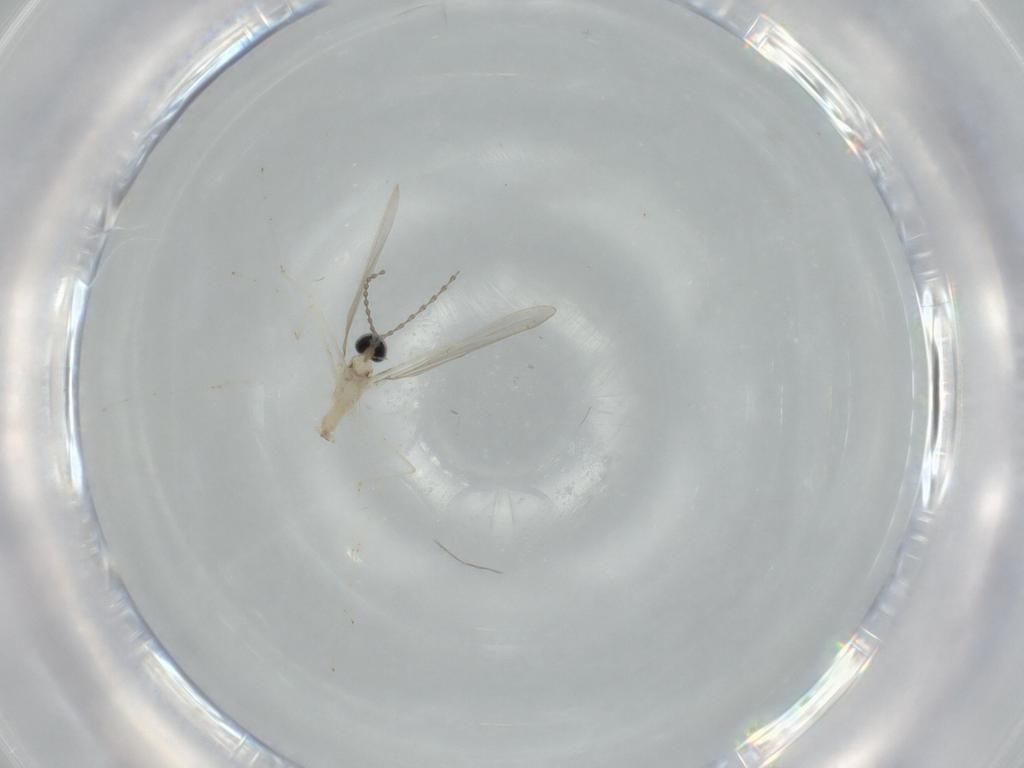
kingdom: Animalia
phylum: Arthropoda
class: Insecta
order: Diptera
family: Cecidomyiidae
